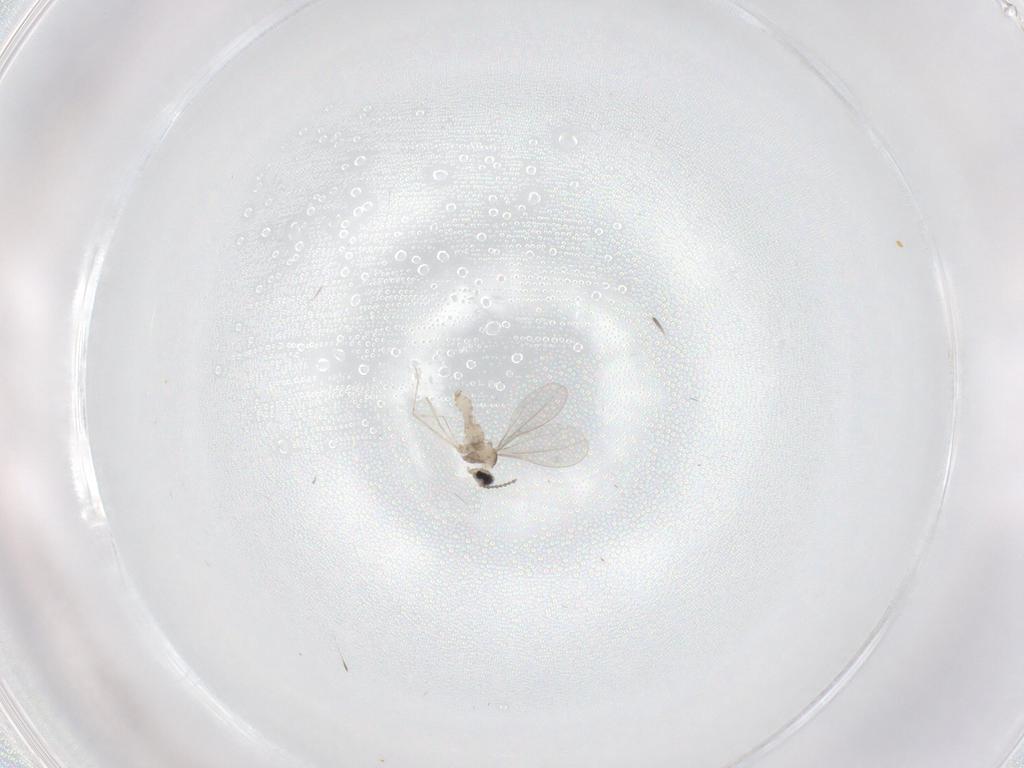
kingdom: Animalia
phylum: Arthropoda
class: Insecta
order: Diptera
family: Cecidomyiidae
